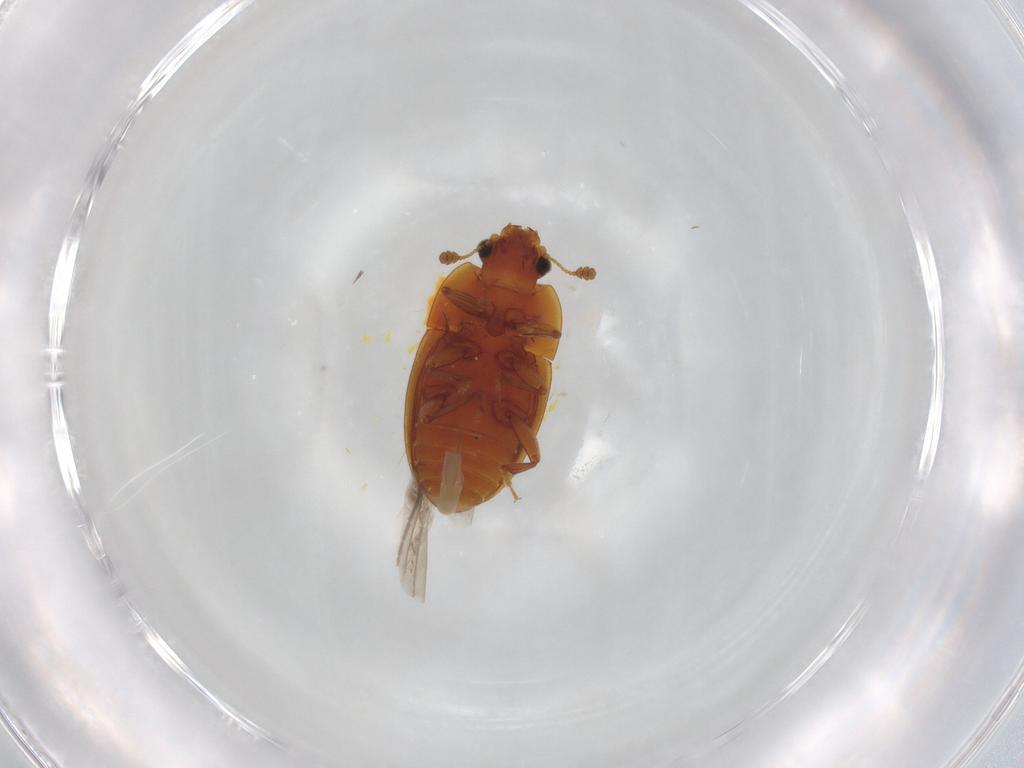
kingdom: Animalia
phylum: Arthropoda
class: Insecta
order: Coleoptera
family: Nitidulidae
